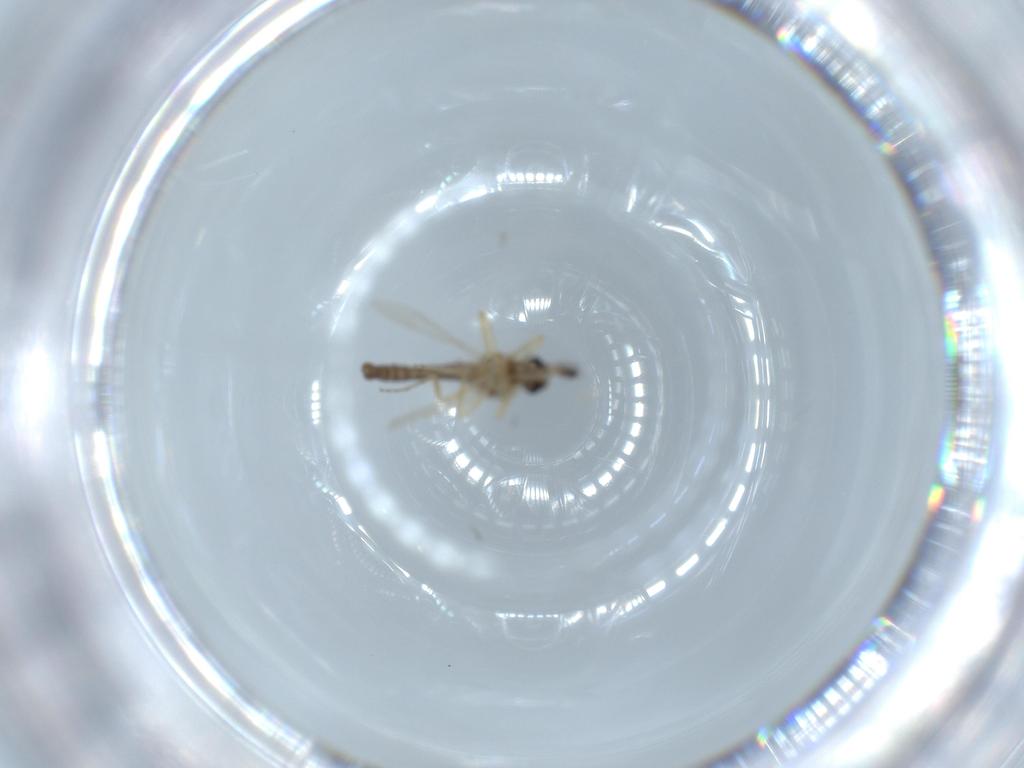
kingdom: Animalia
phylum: Arthropoda
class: Insecta
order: Diptera
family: Ceratopogonidae
